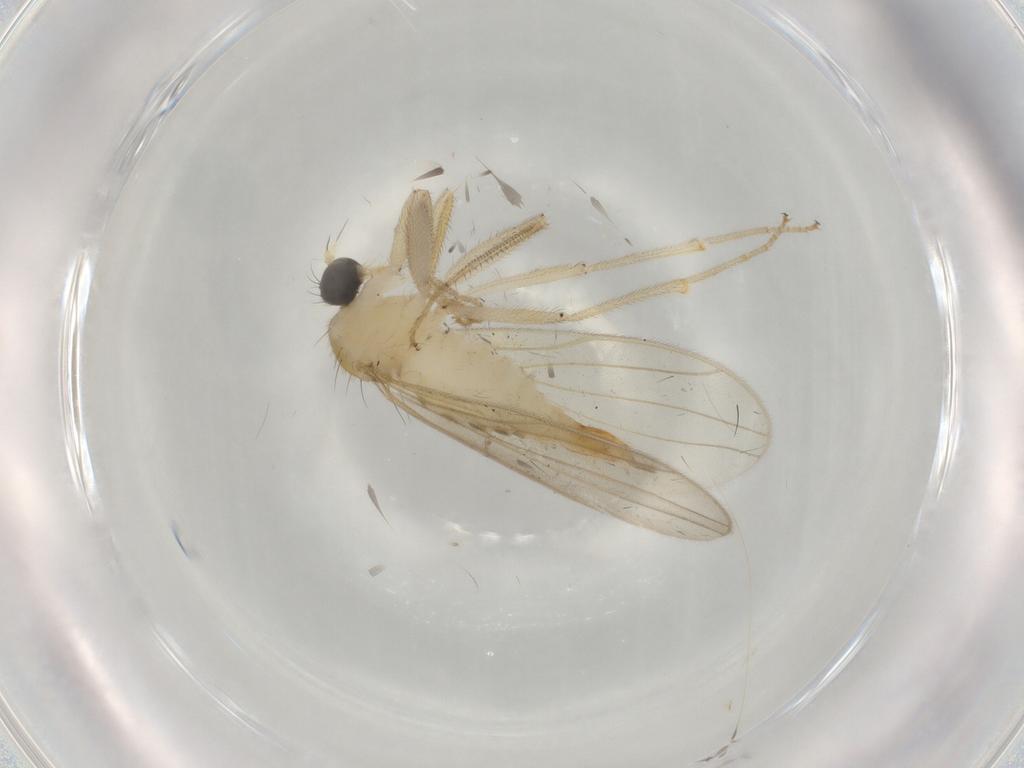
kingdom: Animalia
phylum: Arthropoda
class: Insecta
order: Diptera
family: Hybotidae
